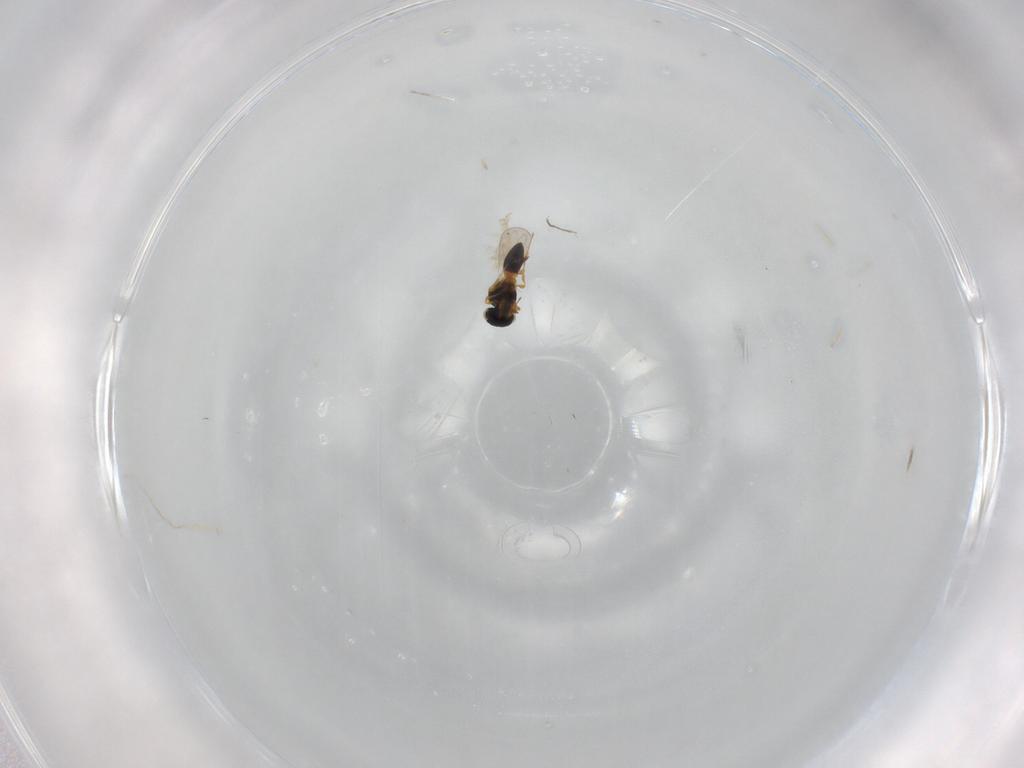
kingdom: Animalia
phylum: Arthropoda
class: Insecta
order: Hymenoptera
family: Platygastridae
